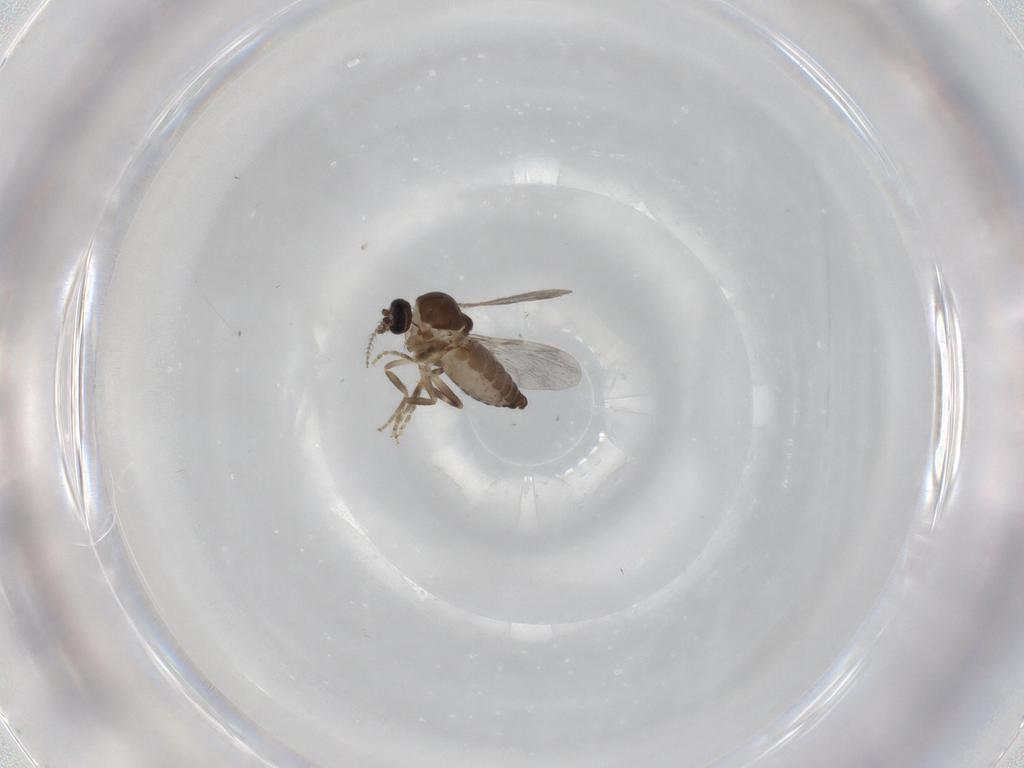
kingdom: Animalia
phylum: Arthropoda
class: Insecta
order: Diptera
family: Ceratopogonidae
